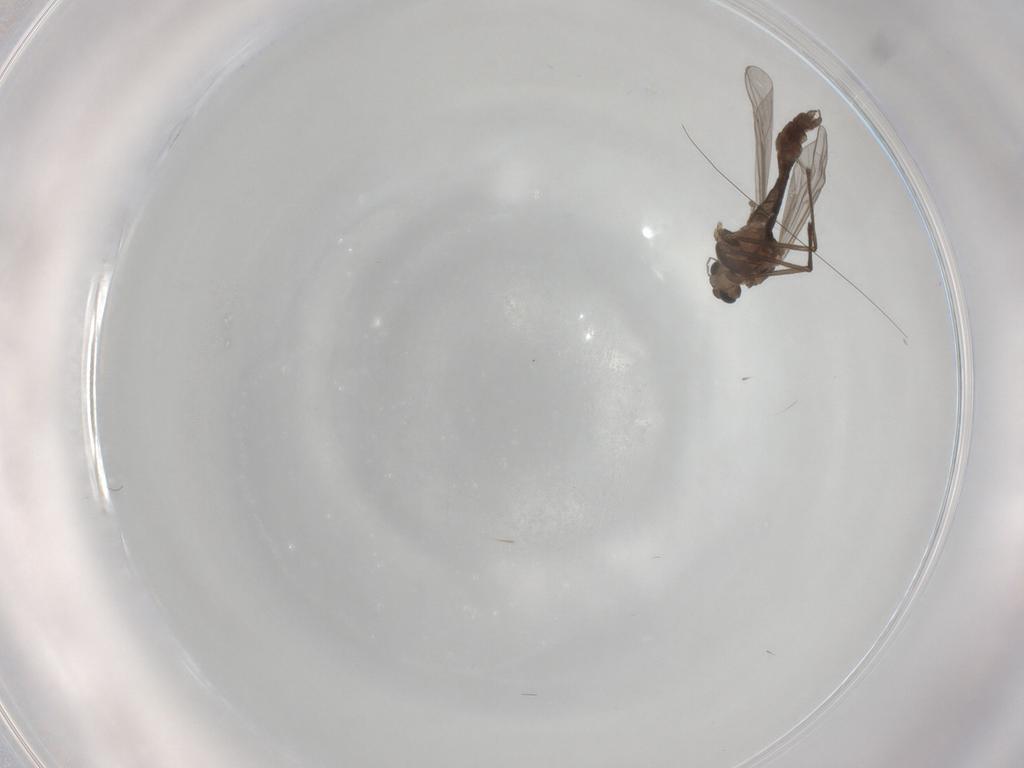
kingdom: Animalia
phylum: Arthropoda
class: Insecta
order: Diptera
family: Chironomidae
